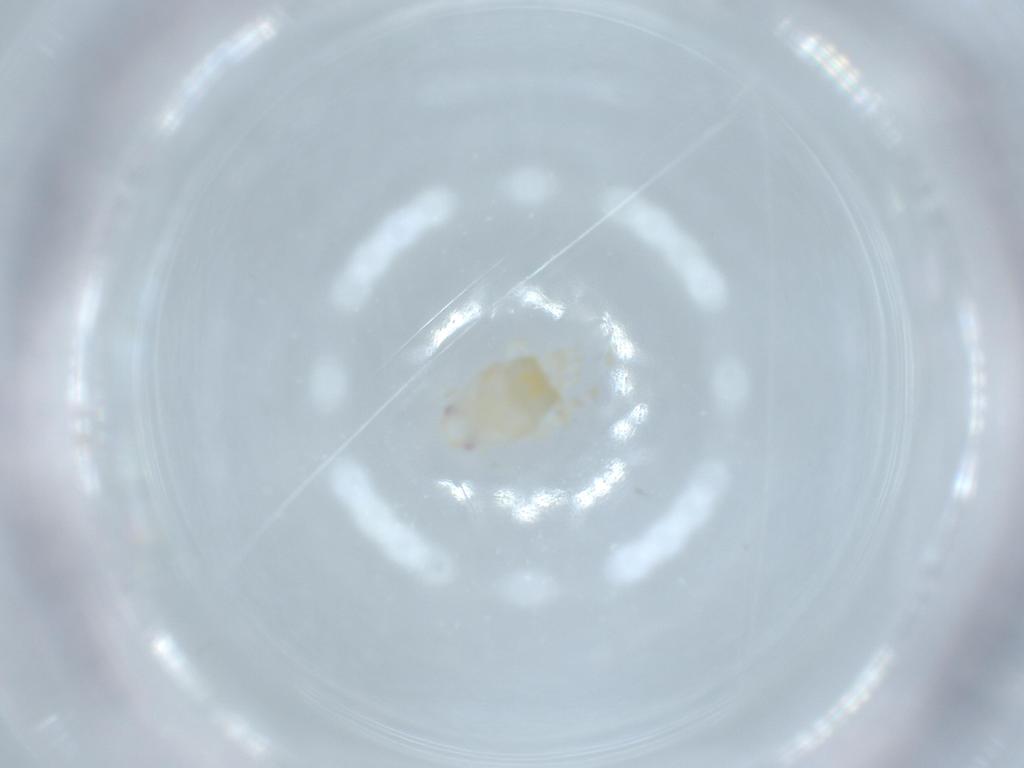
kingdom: Animalia
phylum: Arthropoda
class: Insecta
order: Hemiptera
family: Flatidae
